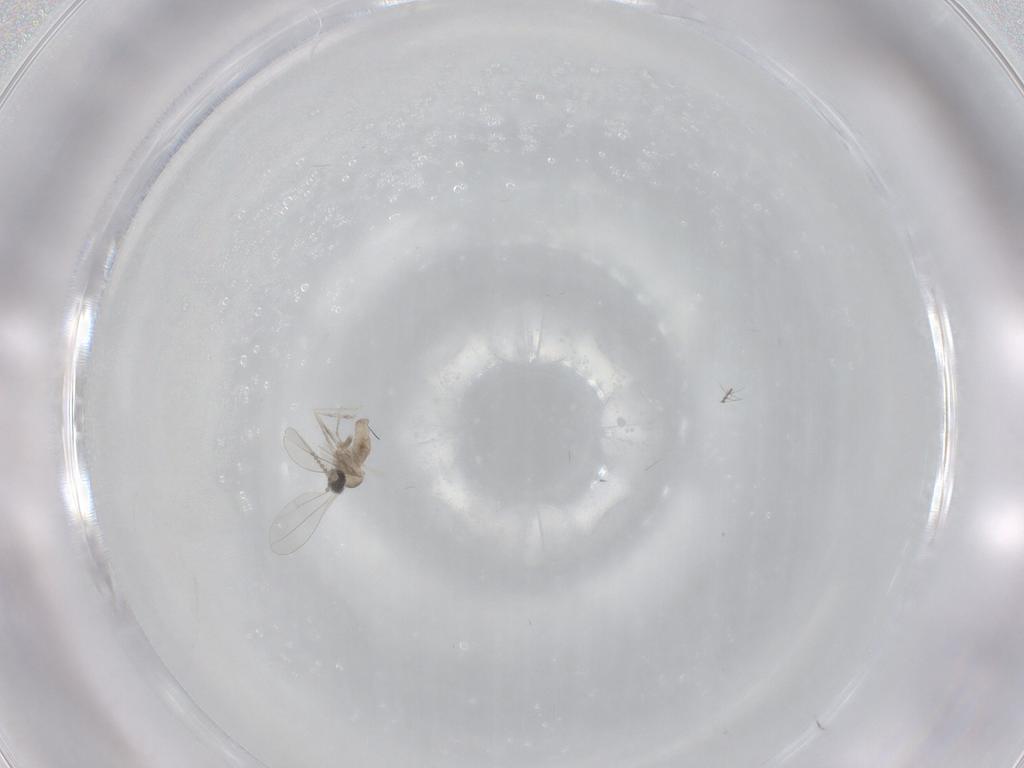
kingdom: Animalia
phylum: Arthropoda
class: Insecta
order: Diptera
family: Cecidomyiidae
